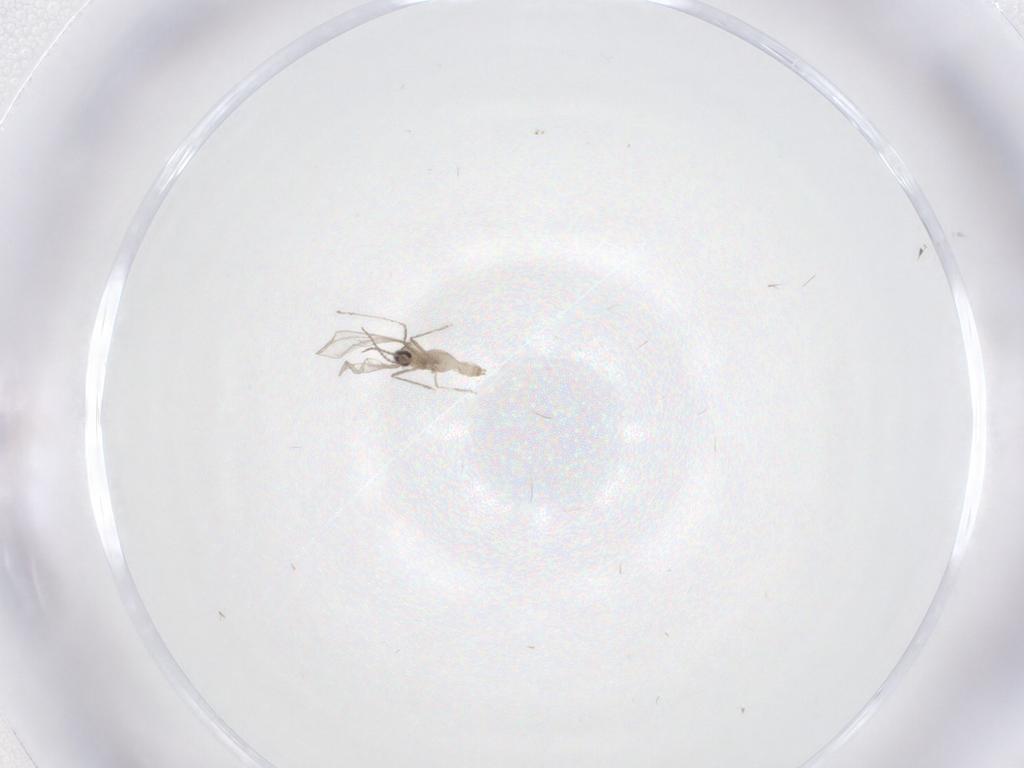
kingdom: Animalia
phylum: Arthropoda
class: Insecta
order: Diptera
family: Cecidomyiidae
